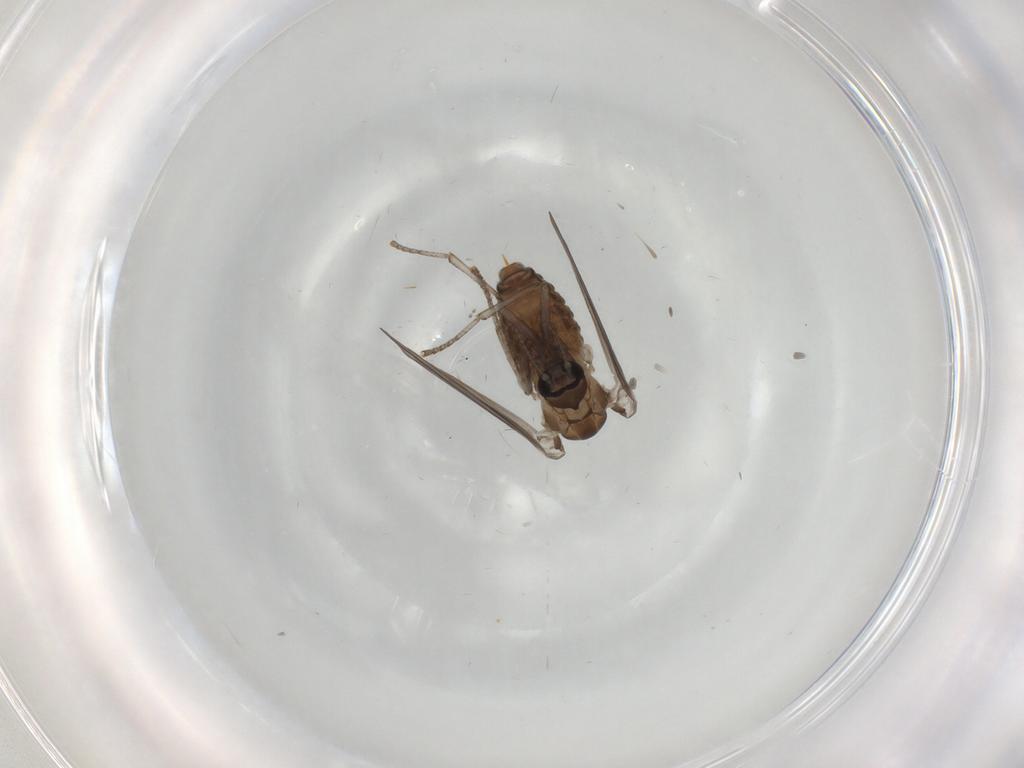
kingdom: Animalia
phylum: Arthropoda
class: Insecta
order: Diptera
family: Psychodidae
